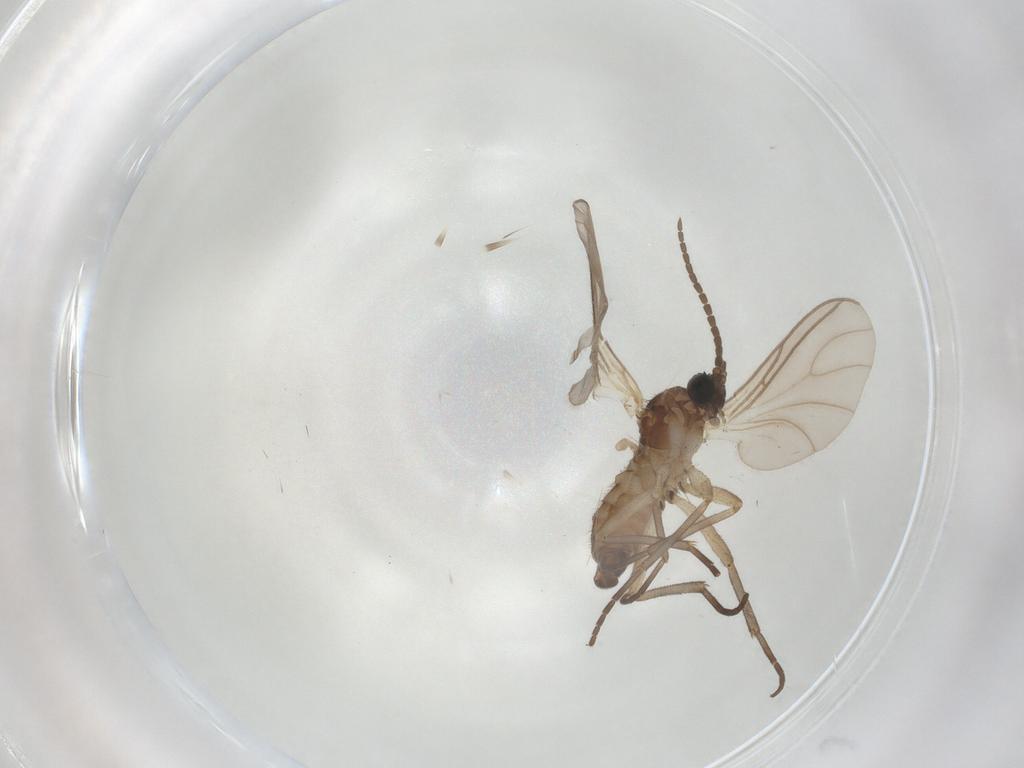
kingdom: Animalia
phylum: Arthropoda
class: Insecta
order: Diptera
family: Sciaridae
